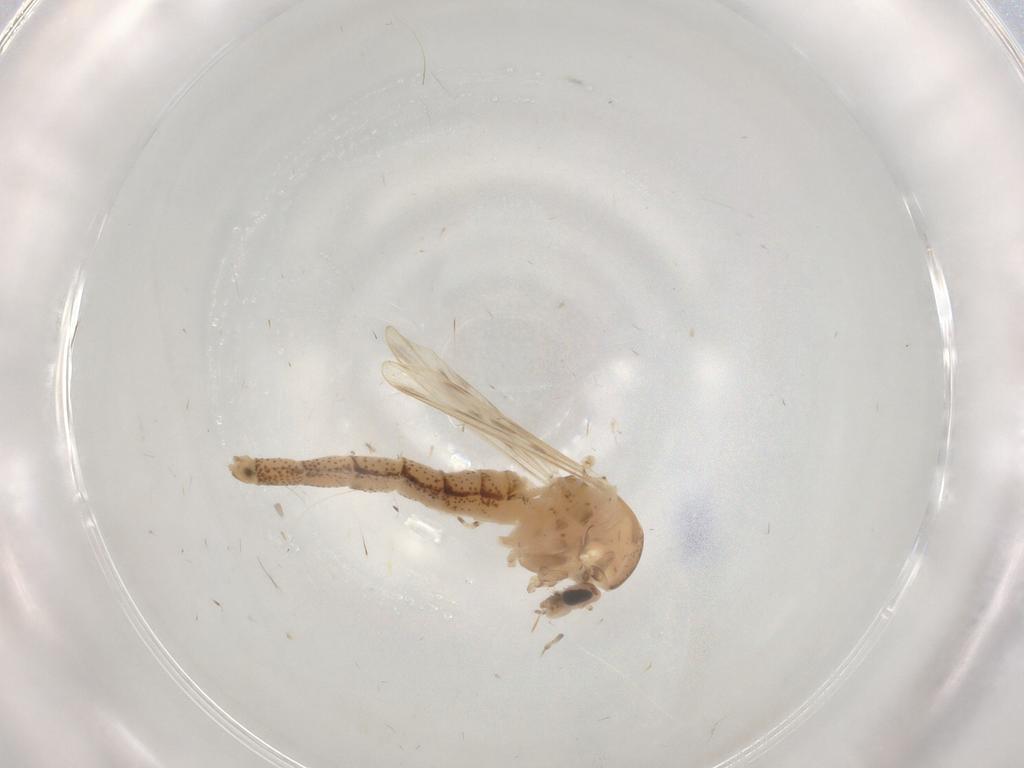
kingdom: Animalia
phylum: Arthropoda
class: Insecta
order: Diptera
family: Chaoboridae
